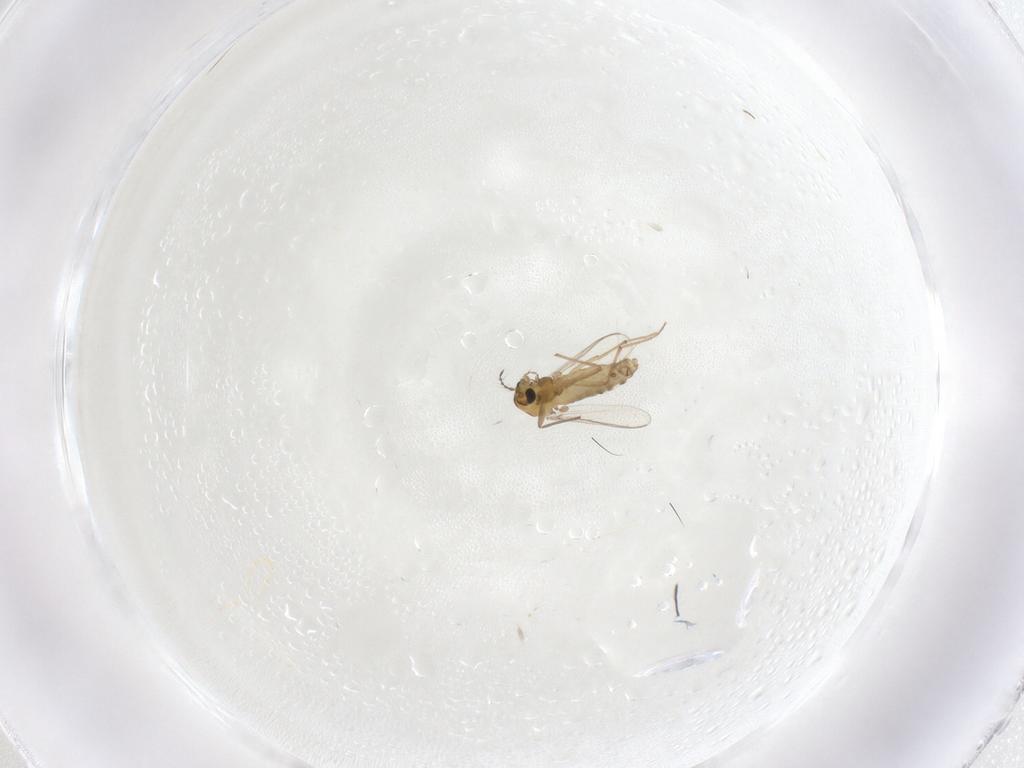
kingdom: Animalia
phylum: Arthropoda
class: Insecta
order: Diptera
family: Chironomidae
